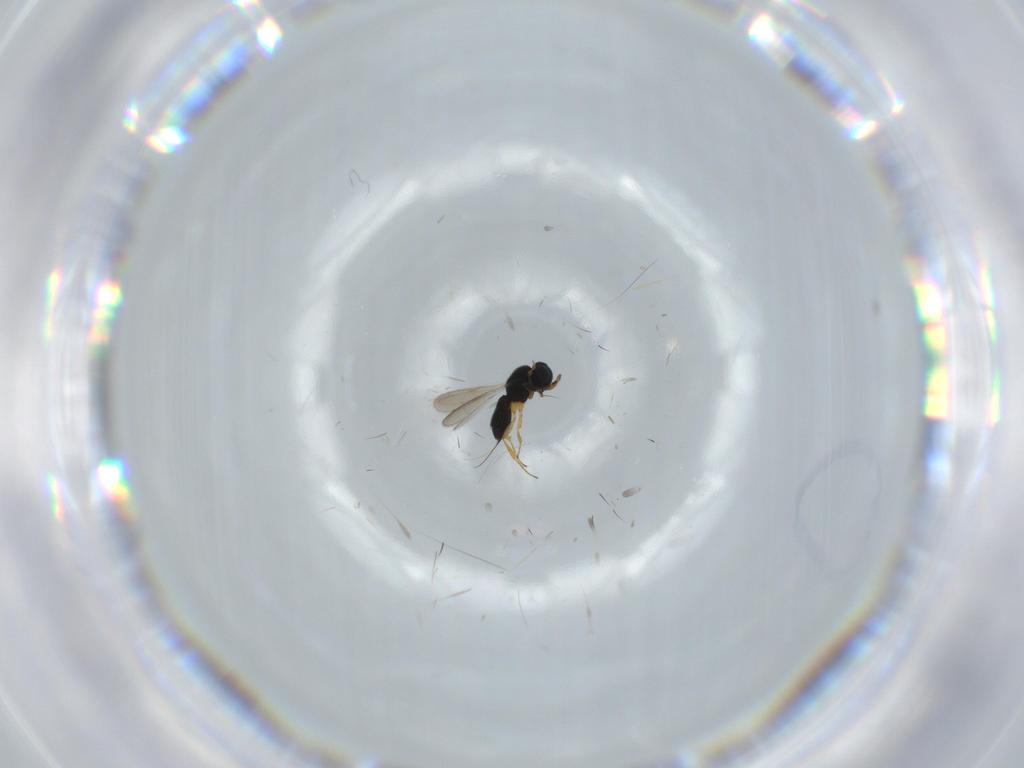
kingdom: Animalia
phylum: Arthropoda
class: Insecta
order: Hymenoptera
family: Scelionidae
